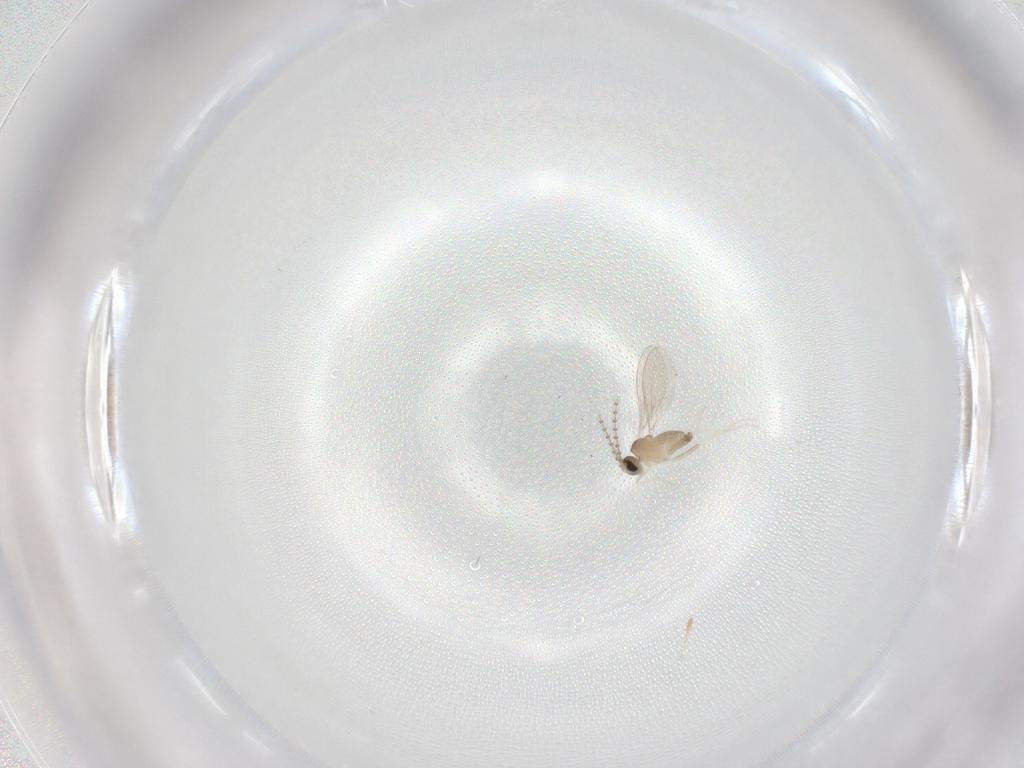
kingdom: Animalia
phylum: Arthropoda
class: Insecta
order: Diptera
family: Cecidomyiidae
